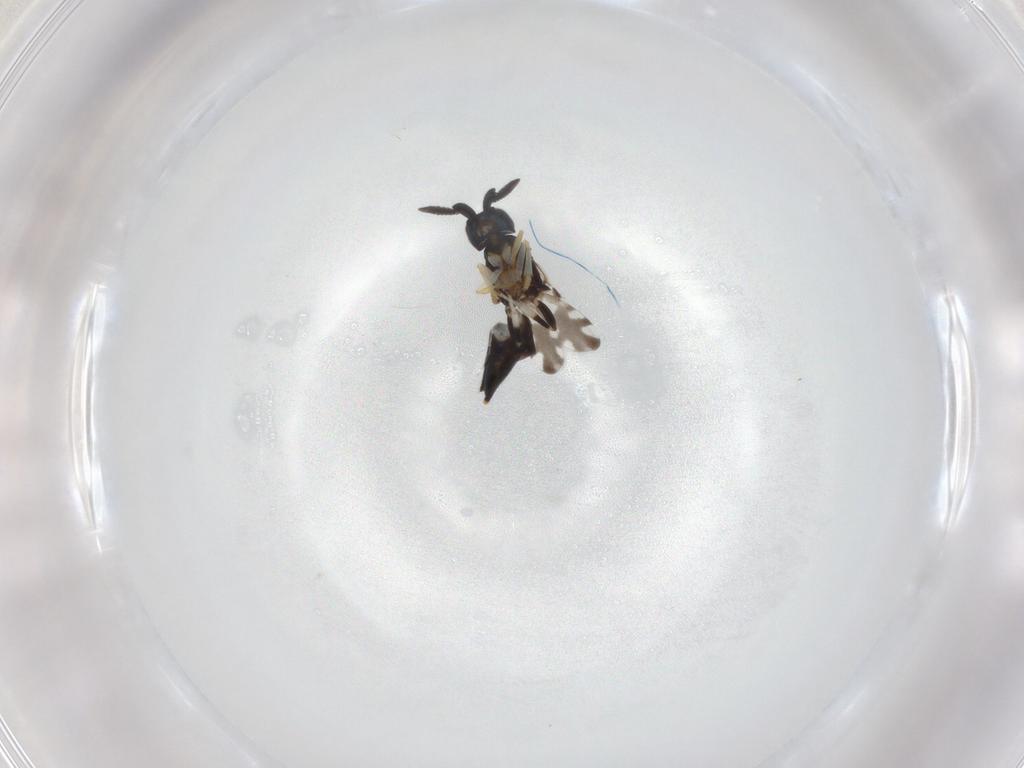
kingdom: Animalia
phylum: Arthropoda
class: Insecta
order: Hymenoptera
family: Encyrtidae
